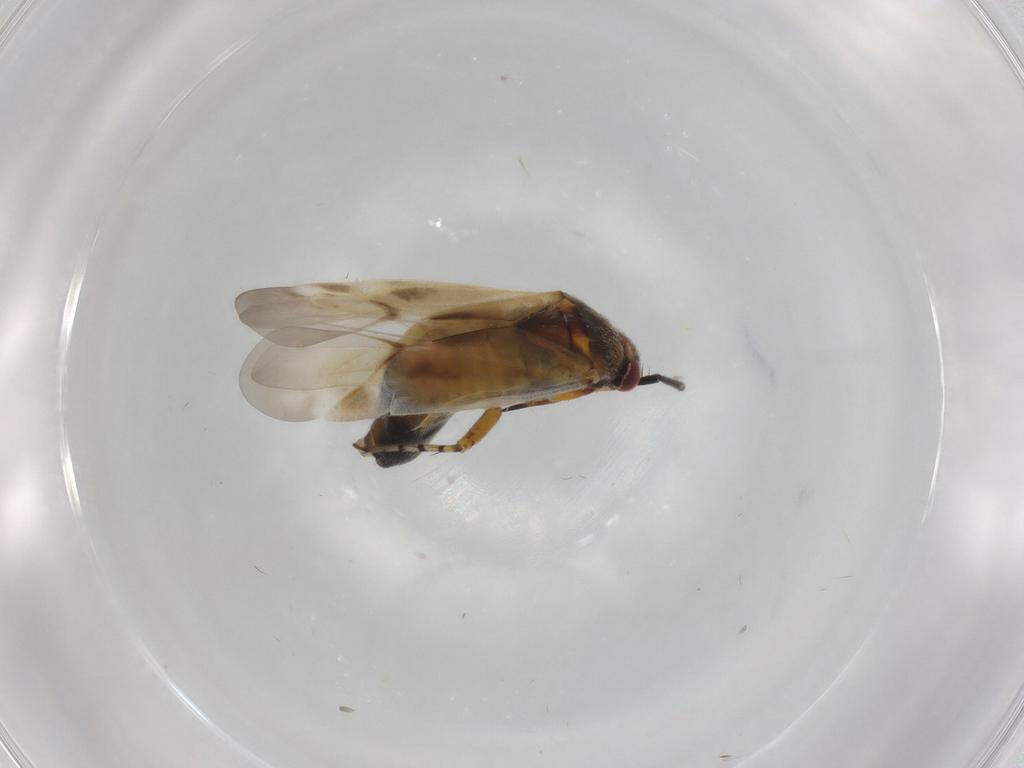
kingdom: Animalia
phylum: Arthropoda
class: Insecta
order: Hemiptera
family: Miridae
